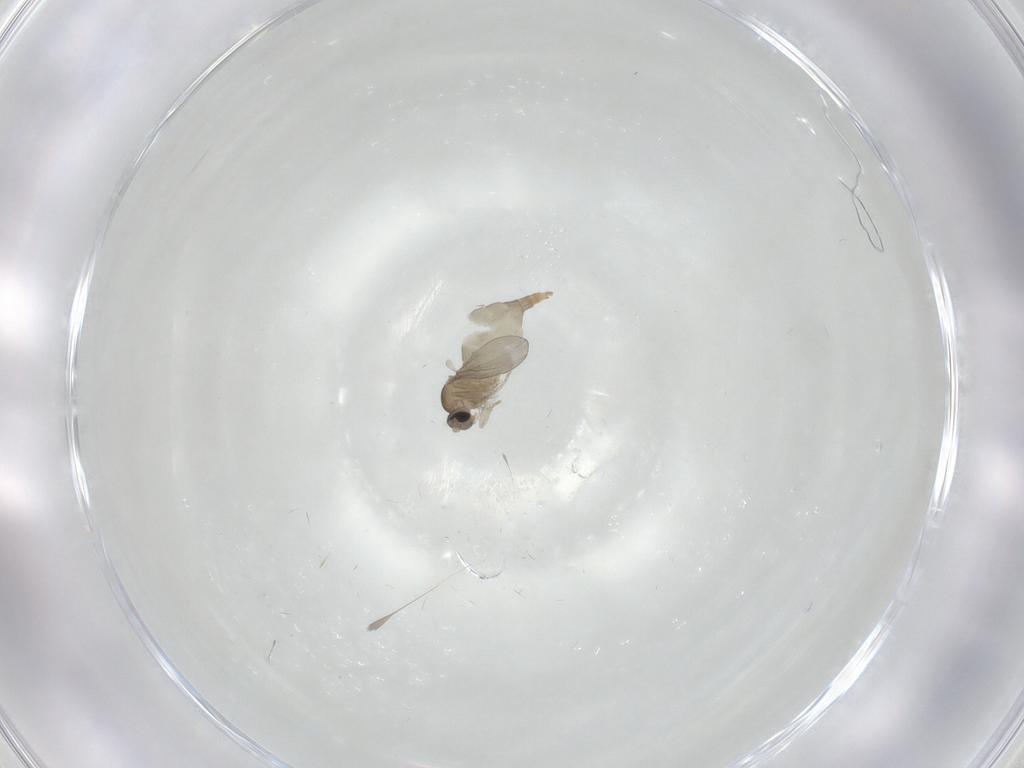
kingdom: Animalia
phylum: Arthropoda
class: Insecta
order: Diptera
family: Cecidomyiidae
